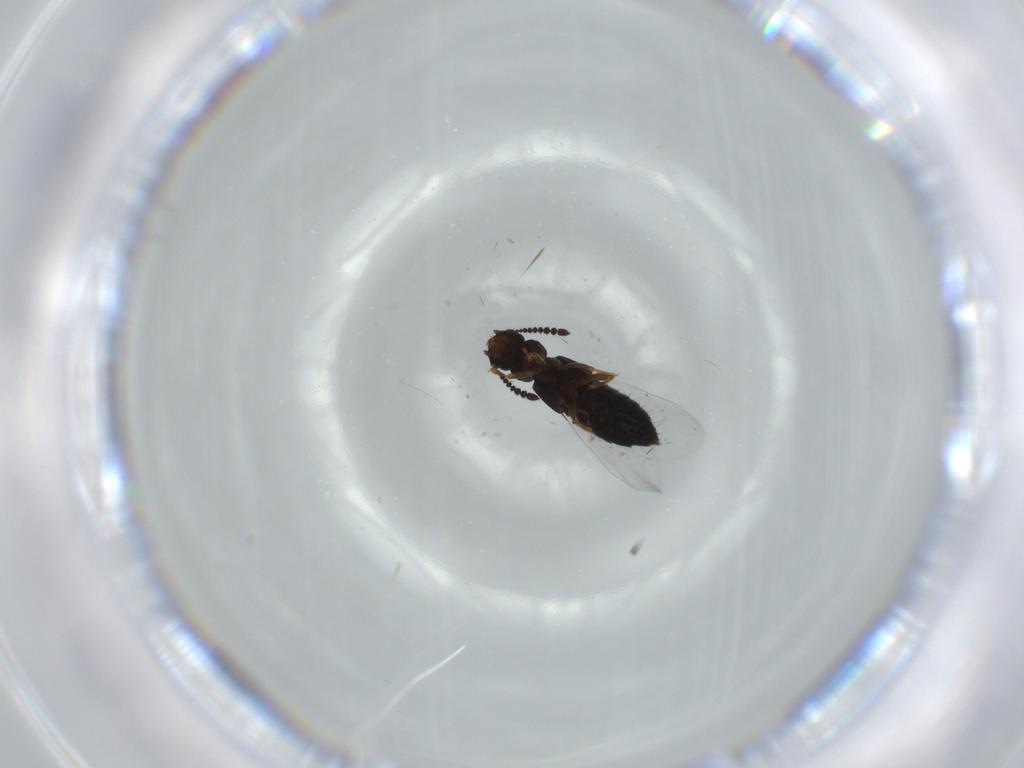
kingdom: Animalia
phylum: Arthropoda
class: Insecta
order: Coleoptera
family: Staphylinidae
